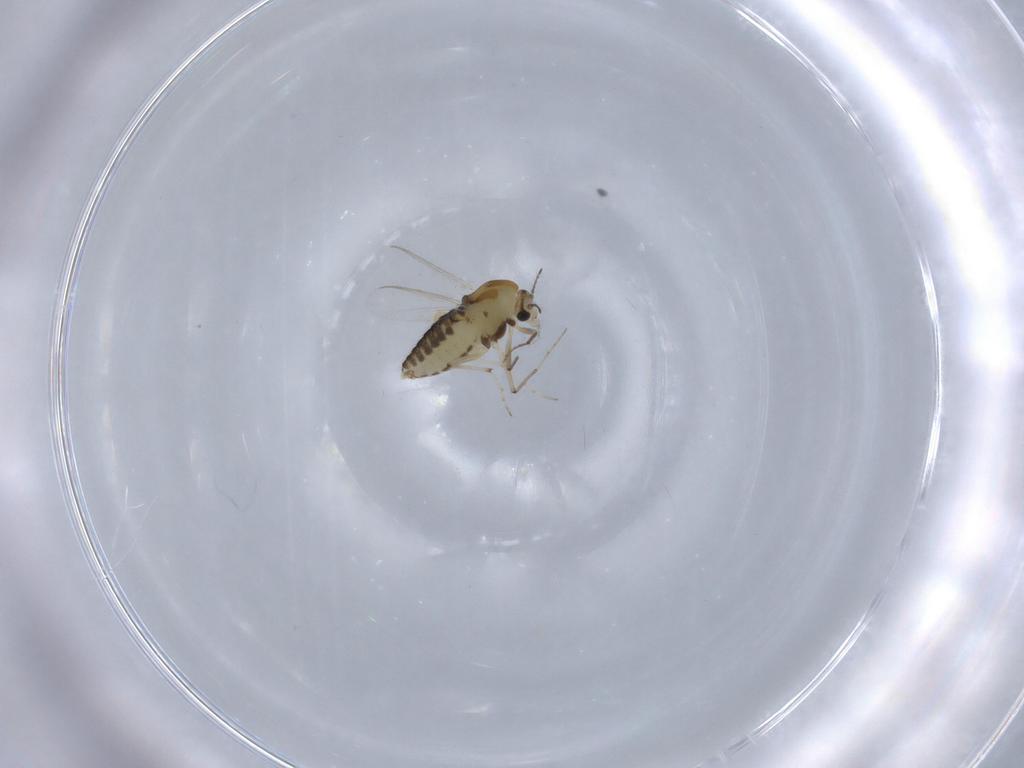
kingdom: Animalia
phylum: Arthropoda
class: Insecta
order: Diptera
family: Chironomidae
